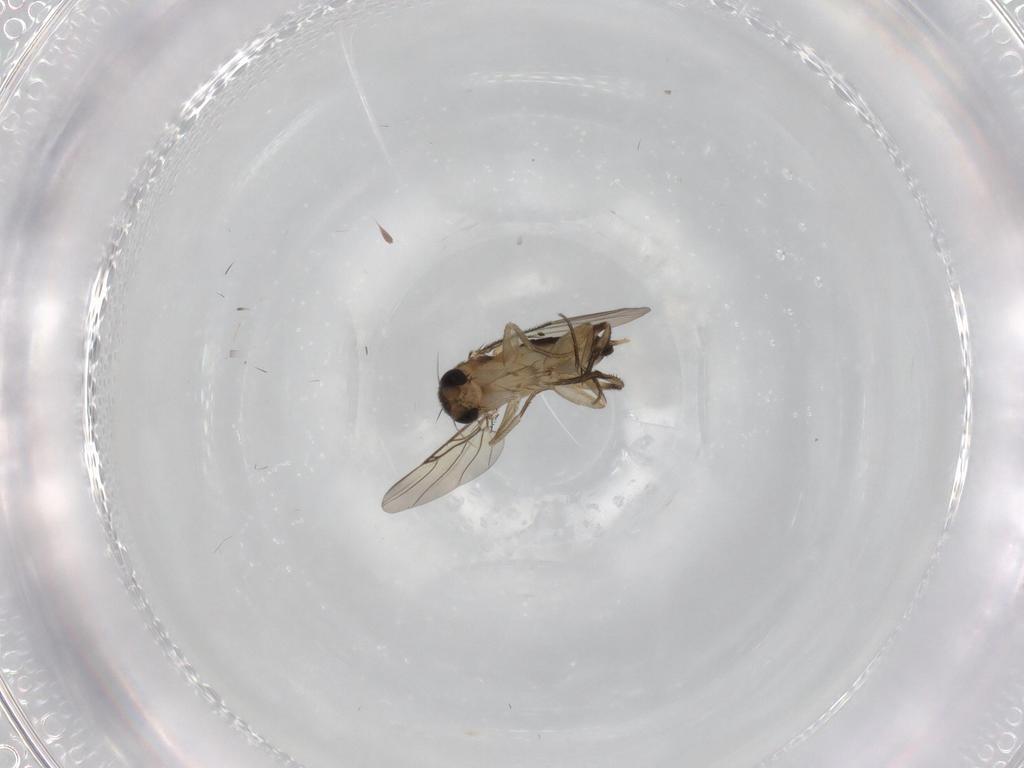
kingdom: Animalia
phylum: Arthropoda
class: Insecta
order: Diptera
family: Phoridae
